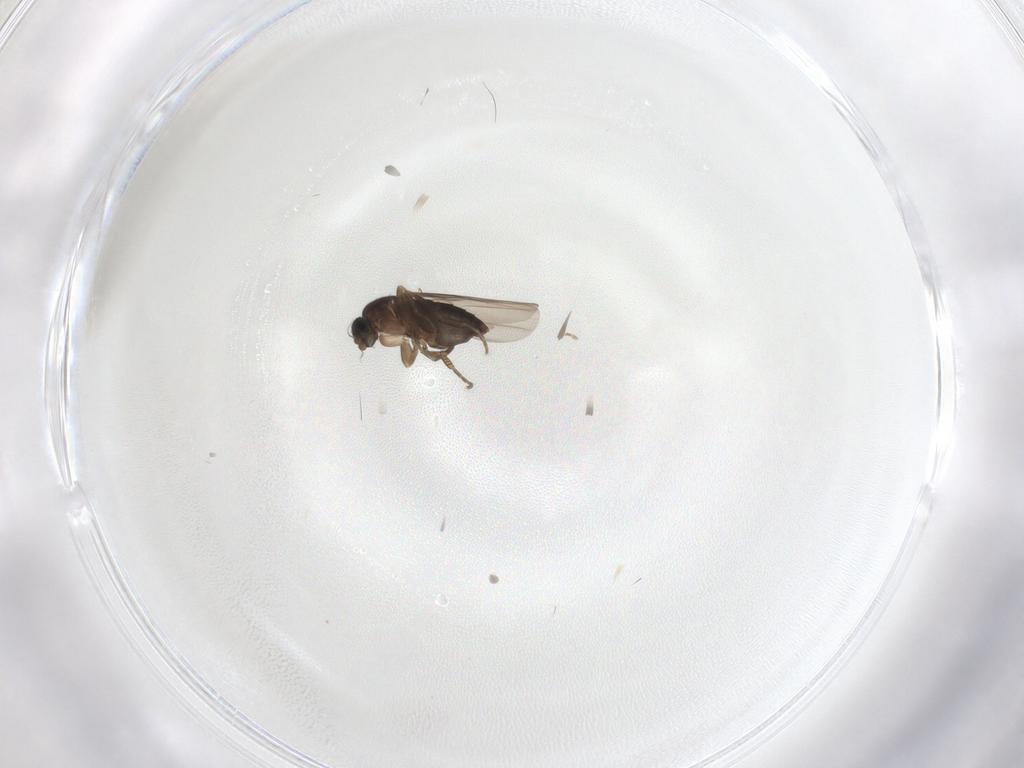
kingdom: Animalia
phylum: Arthropoda
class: Insecta
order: Diptera
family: Phoridae
